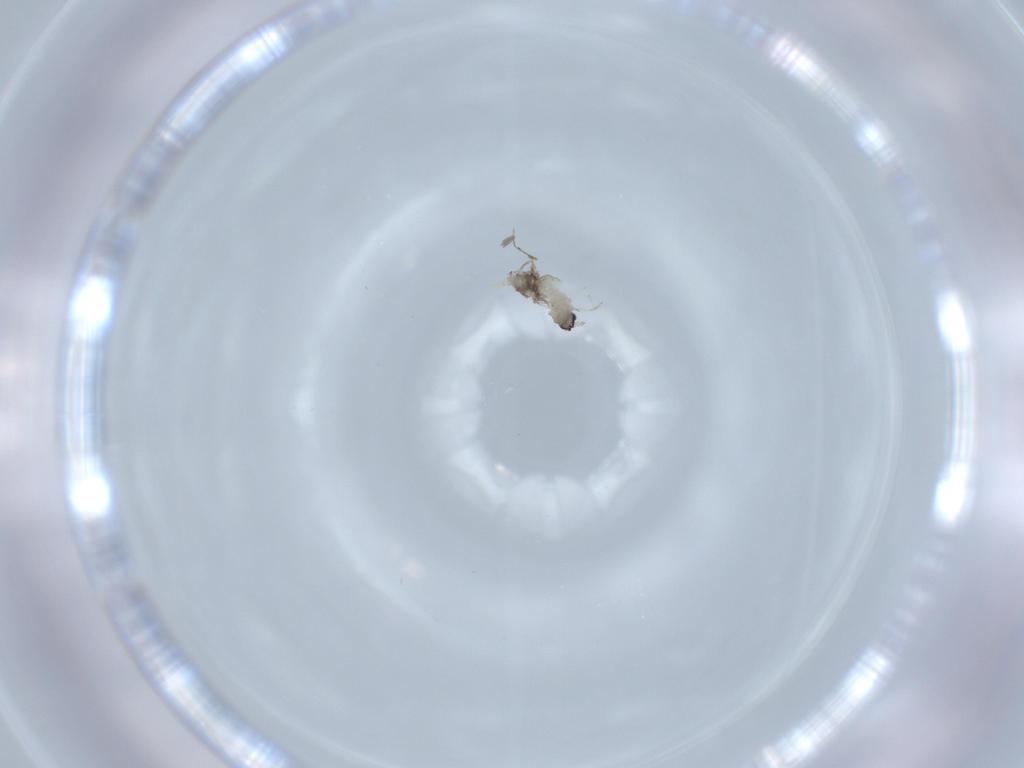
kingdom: Animalia
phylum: Arthropoda
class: Insecta
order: Diptera
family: Cecidomyiidae
